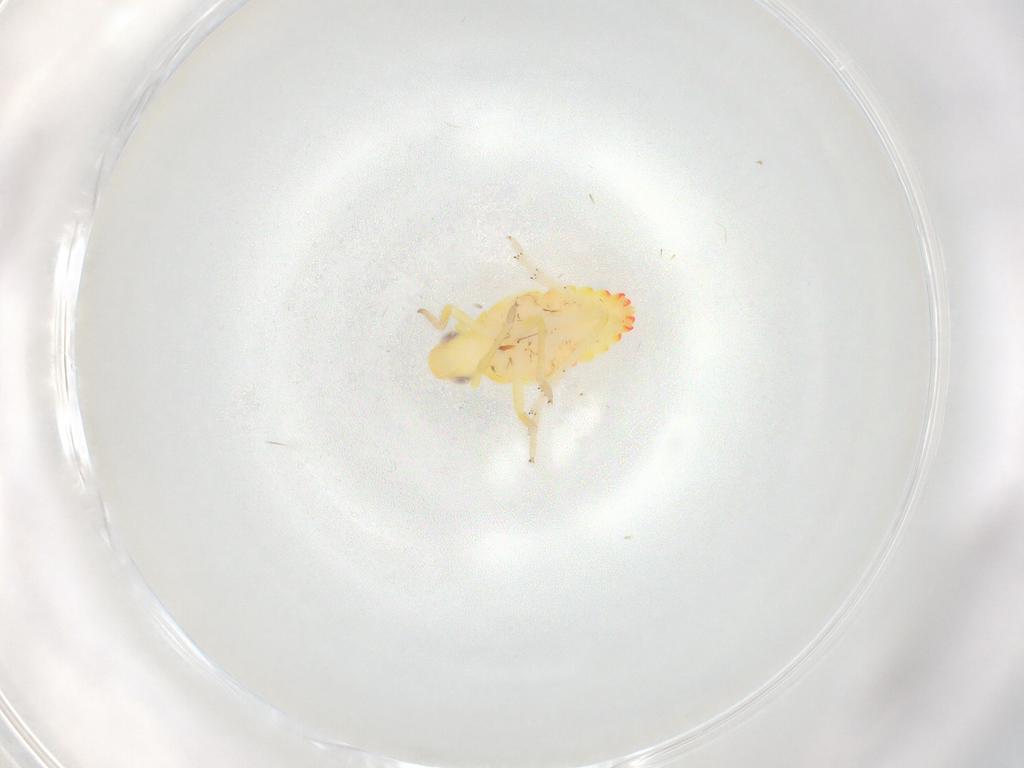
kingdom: Animalia
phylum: Arthropoda
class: Insecta
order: Hemiptera
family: Tropiduchidae
